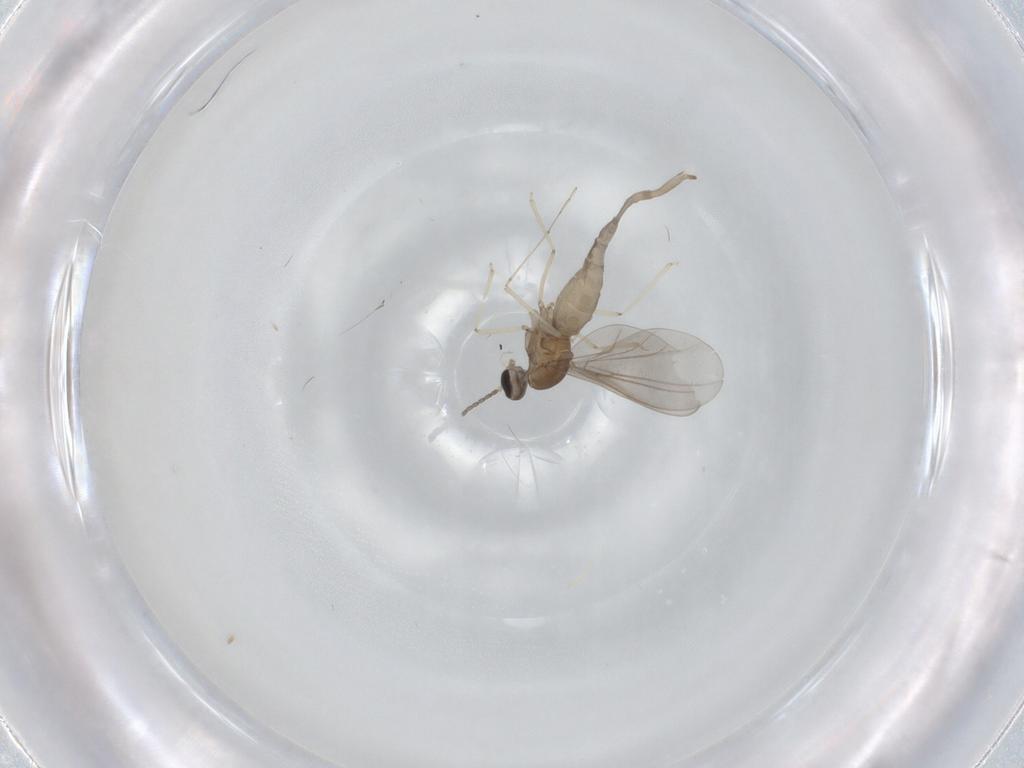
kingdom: Animalia
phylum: Arthropoda
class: Insecta
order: Diptera
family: Cecidomyiidae
